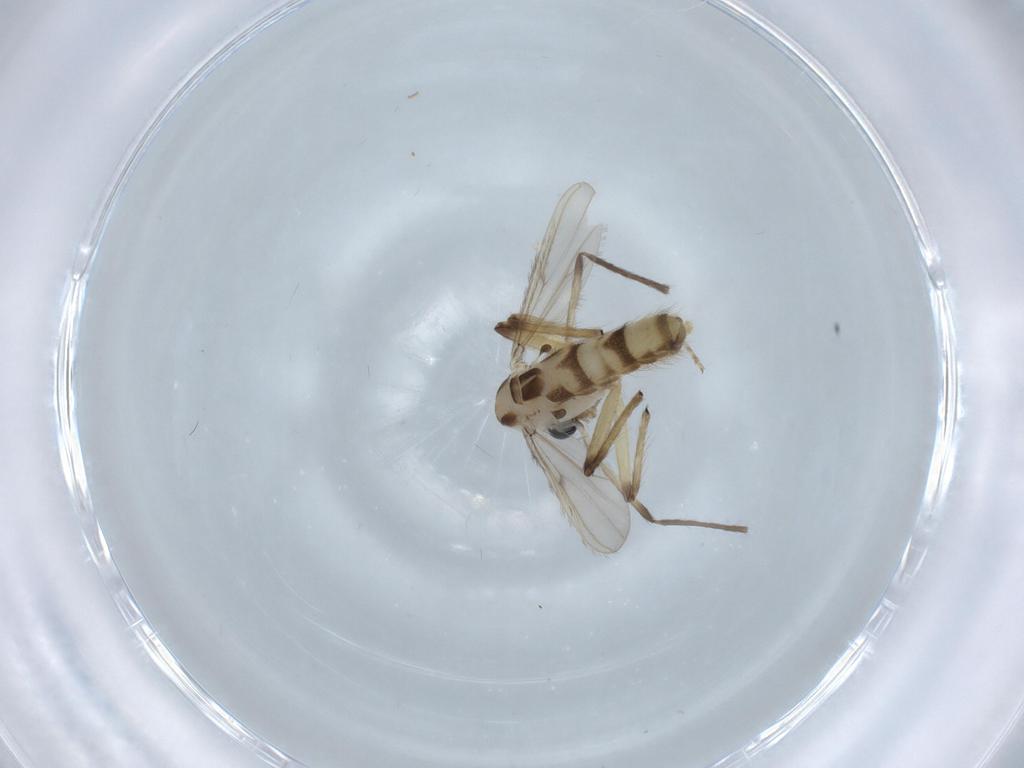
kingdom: Animalia
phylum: Arthropoda
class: Insecta
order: Diptera
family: Chironomidae
